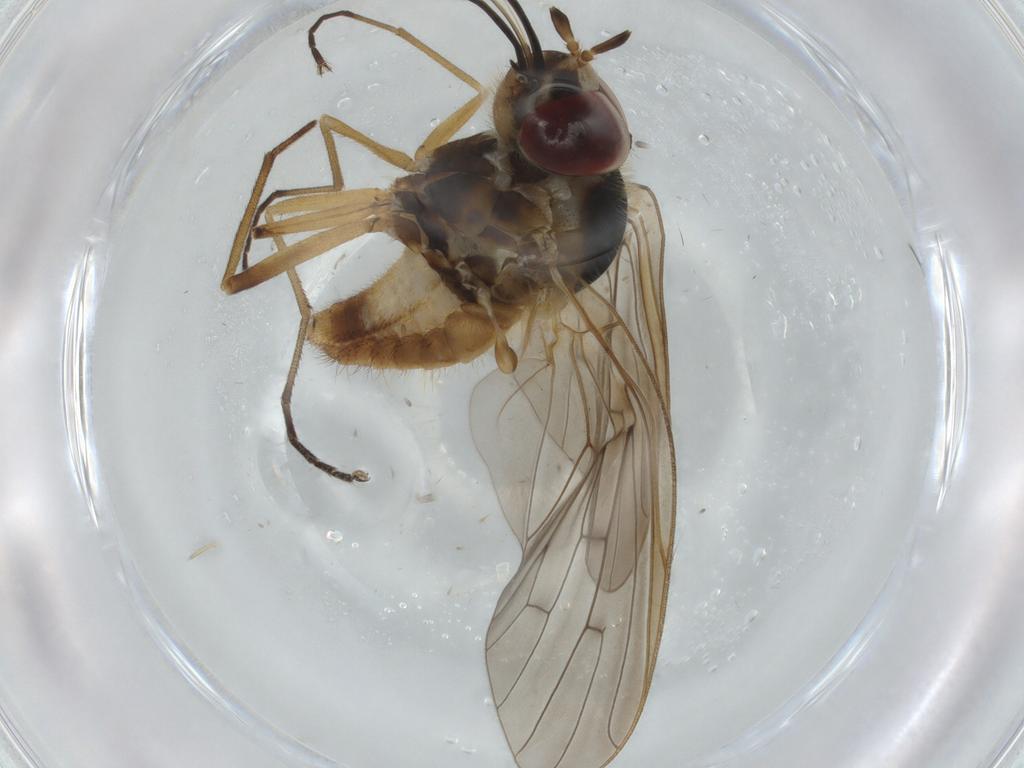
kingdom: Animalia
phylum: Arthropoda
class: Insecta
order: Diptera
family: Bombyliidae
